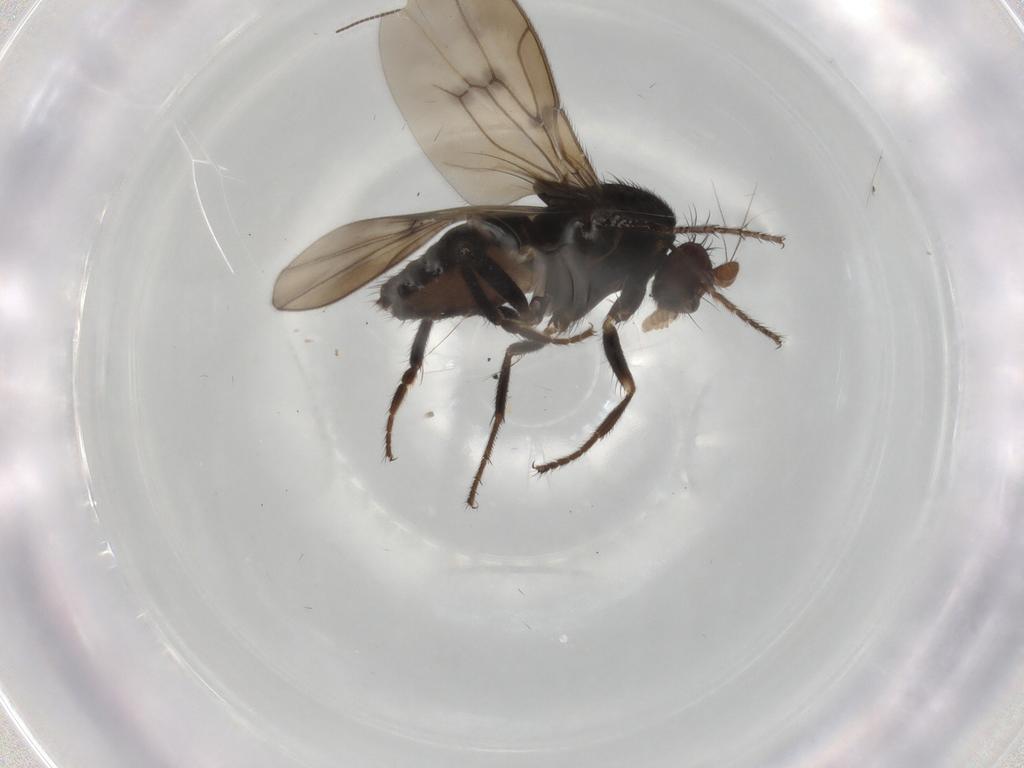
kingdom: Animalia
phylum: Arthropoda
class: Insecta
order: Diptera
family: Sphaeroceridae
